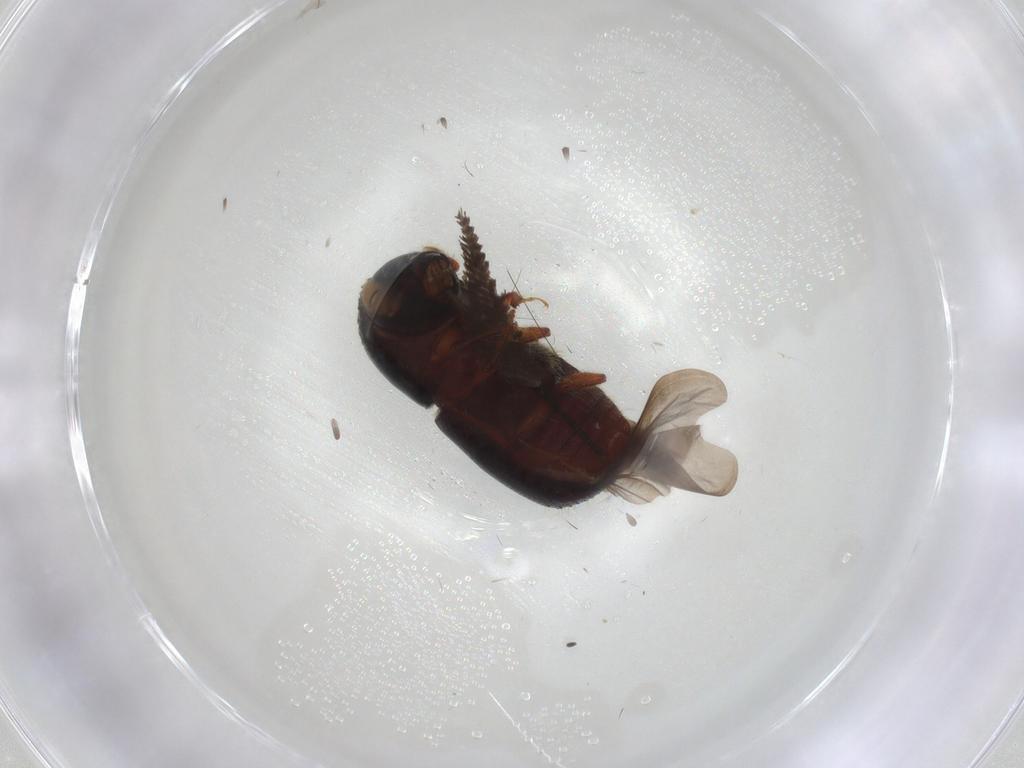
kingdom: Animalia
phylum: Arthropoda
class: Insecta
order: Coleoptera
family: Curculionidae
